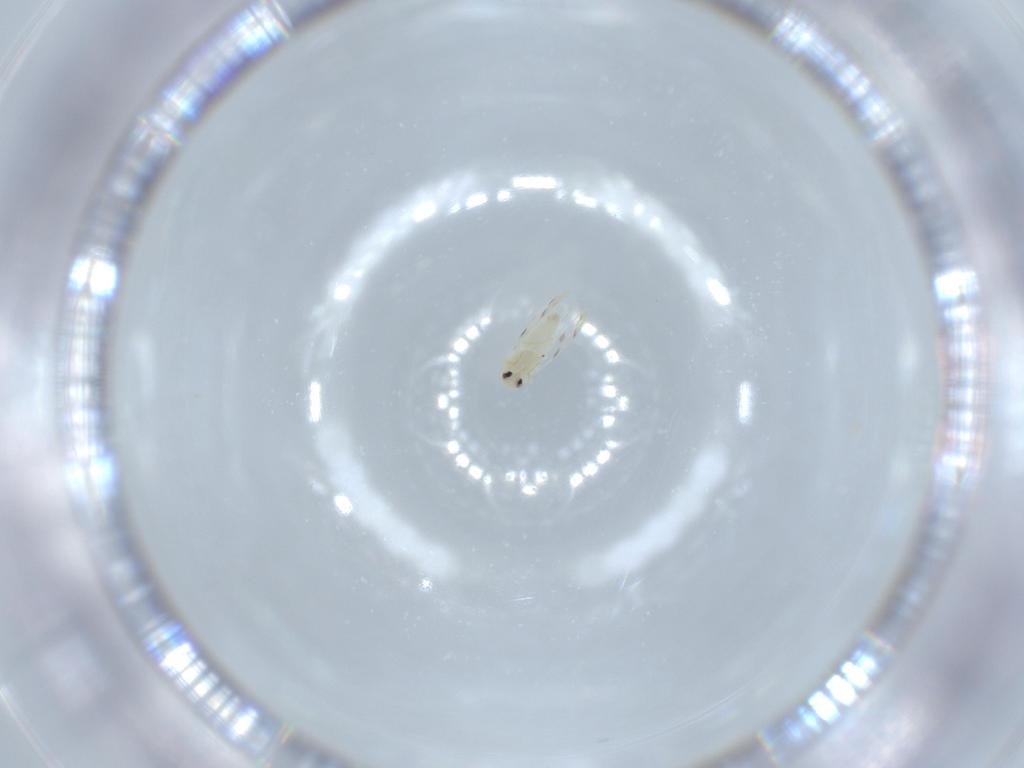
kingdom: Animalia
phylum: Arthropoda
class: Insecta
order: Hemiptera
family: Aleyrodidae
